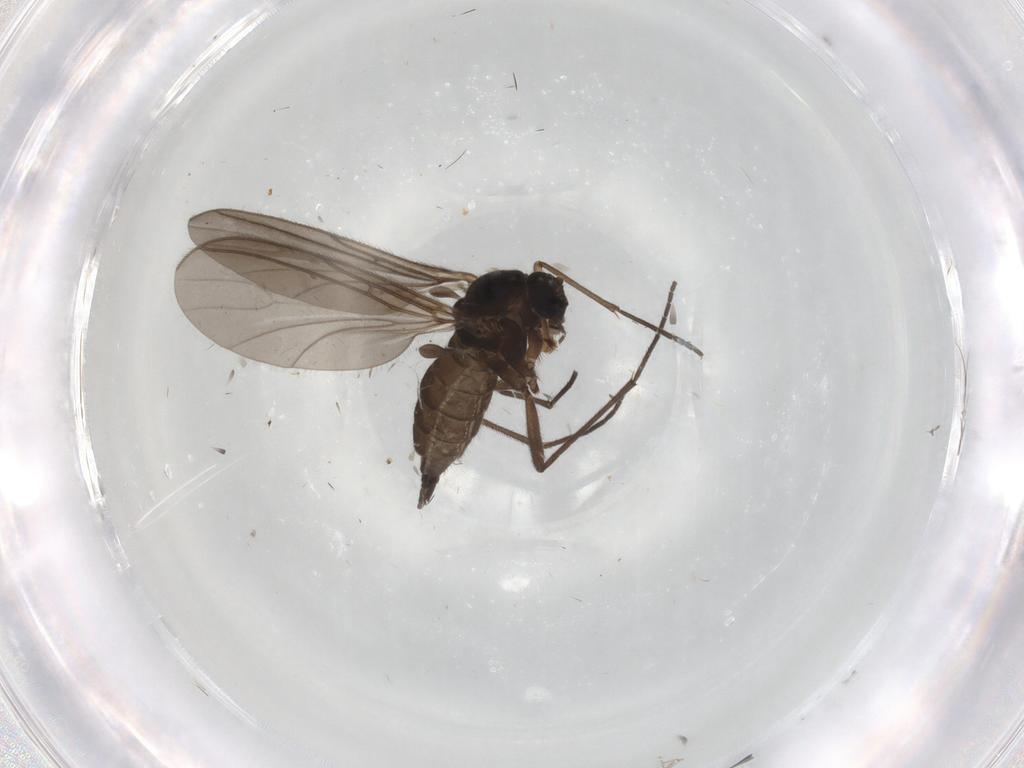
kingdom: Animalia
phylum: Arthropoda
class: Insecta
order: Diptera
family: Sciaridae
